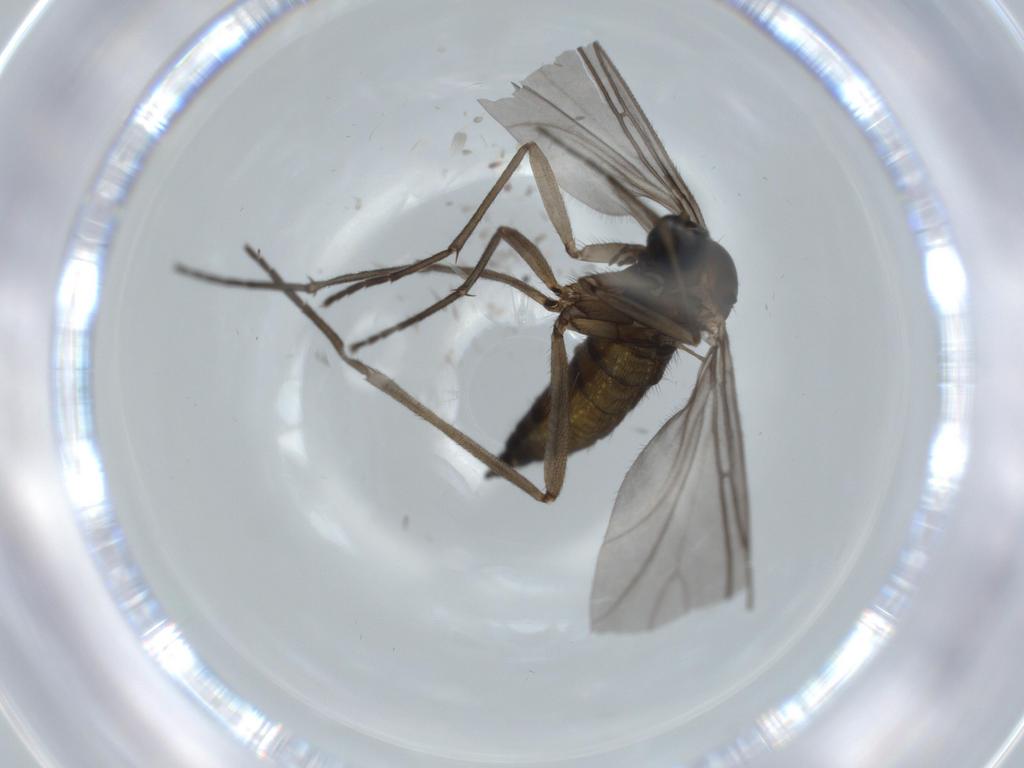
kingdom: Animalia
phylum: Arthropoda
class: Insecta
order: Diptera
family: Sciaridae
